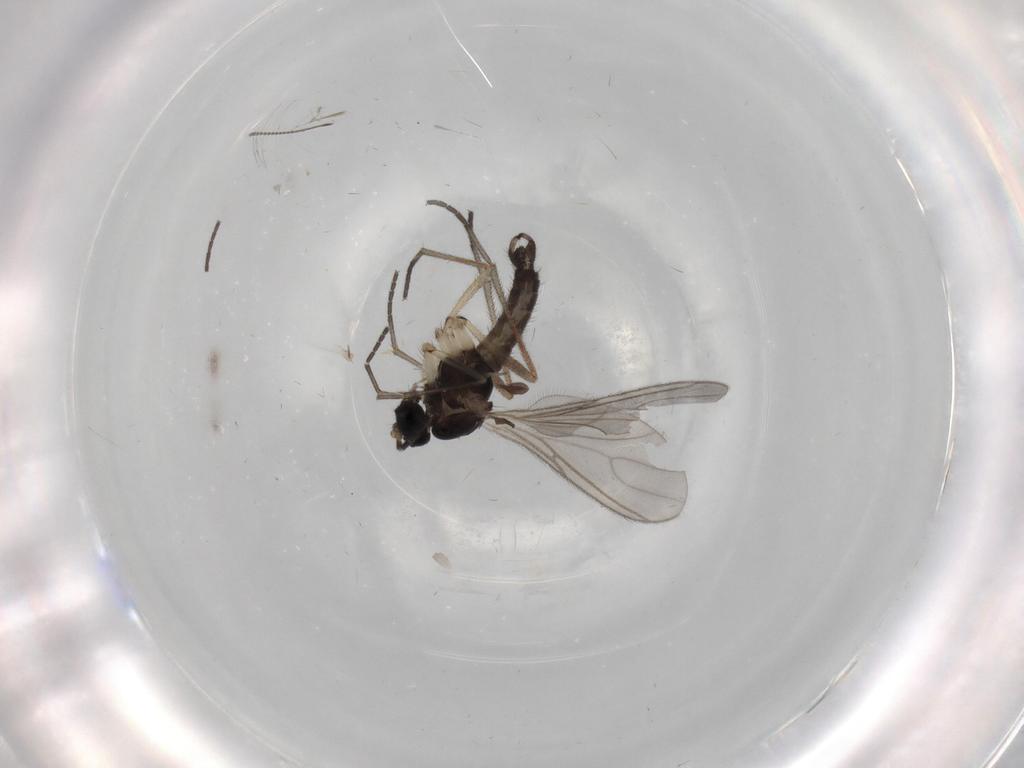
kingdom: Animalia
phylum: Arthropoda
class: Insecta
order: Diptera
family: Sciaridae
